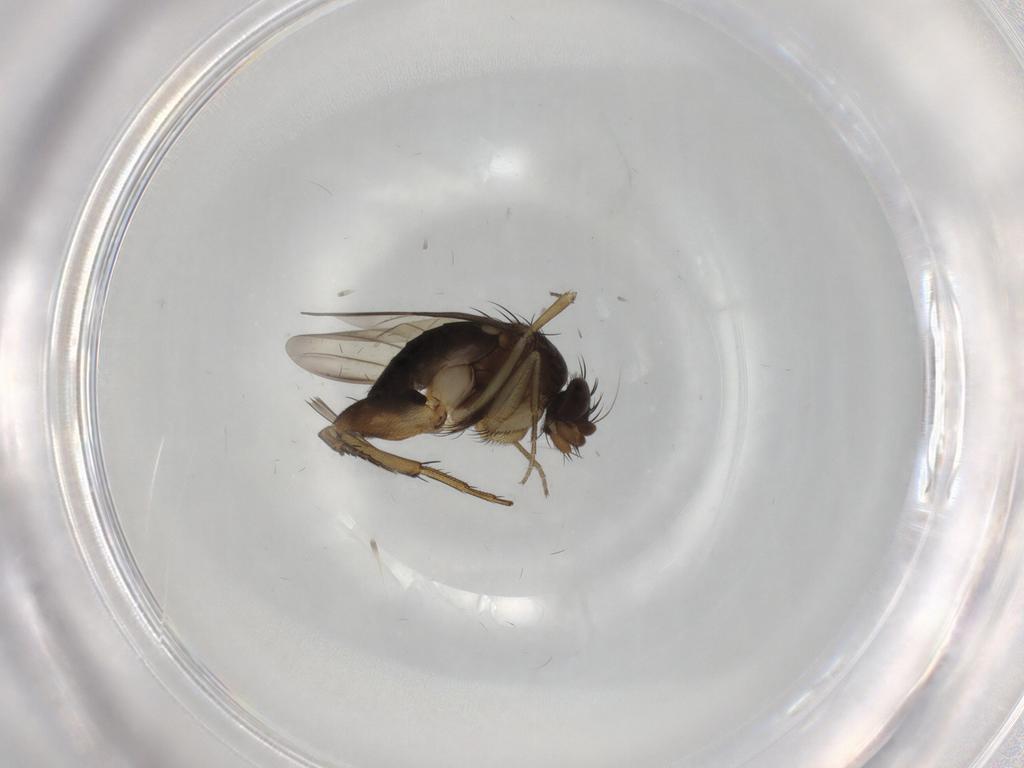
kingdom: Animalia
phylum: Arthropoda
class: Insecta
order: Diptera
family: Phoridae
